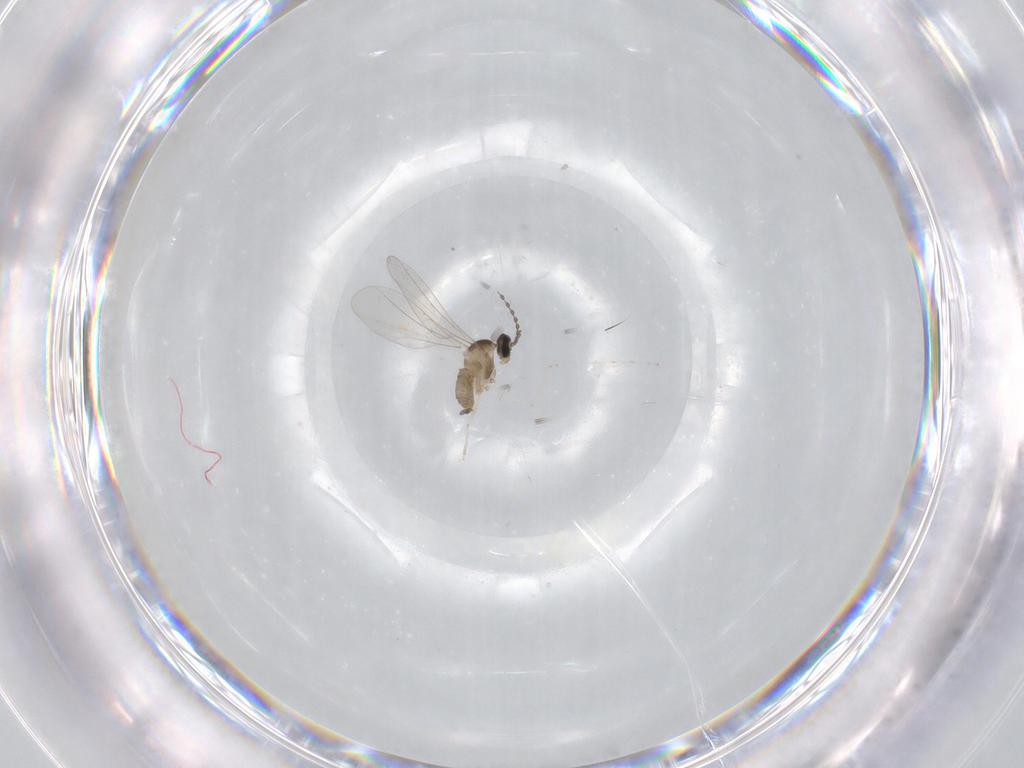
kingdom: Animalia
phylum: Arthropoda
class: Insecta
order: Diptera
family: Cecidomyiidae
